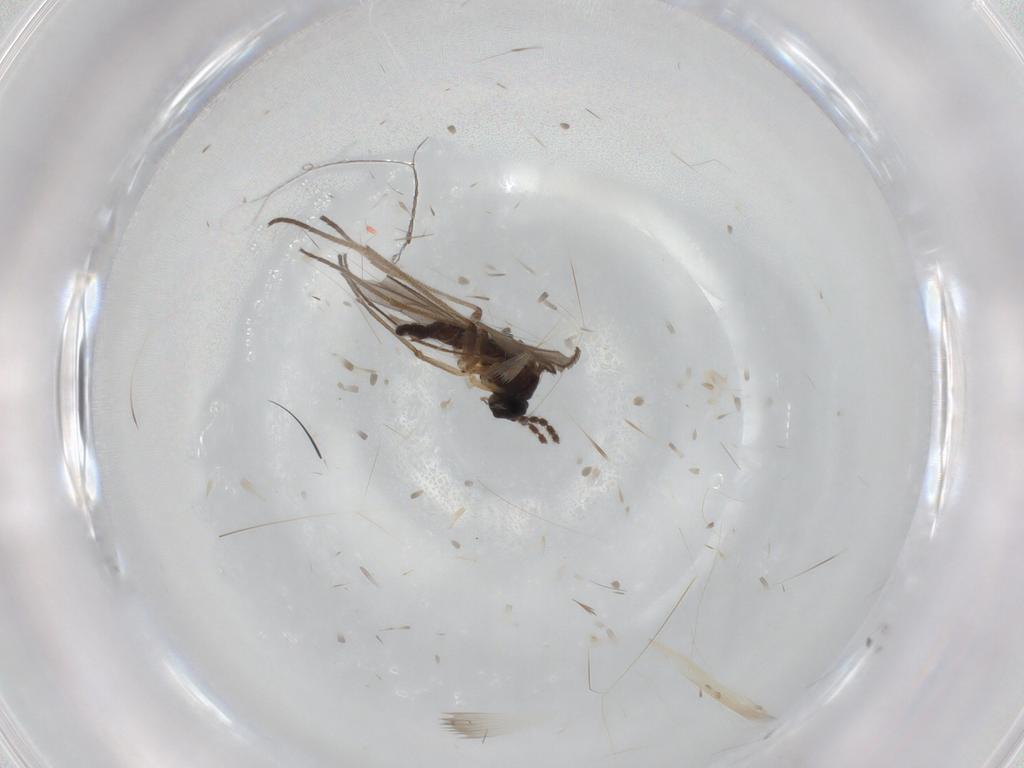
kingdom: Animalia
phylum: Arthropoda
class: Insecta
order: Diptera
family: Sciaridae
